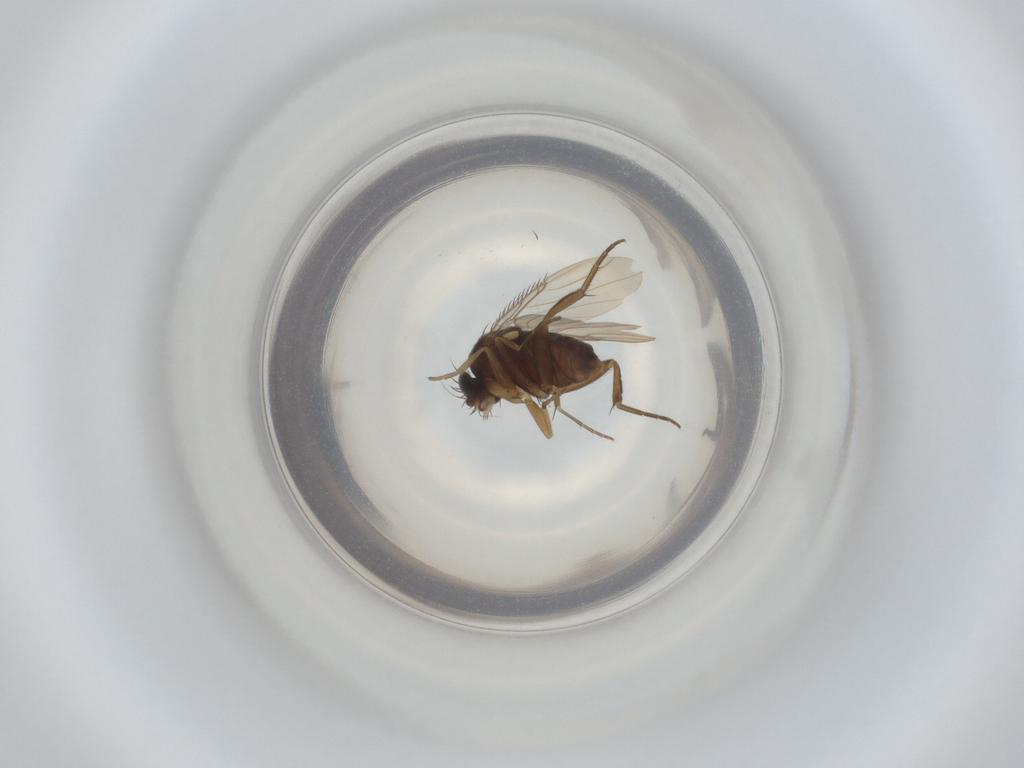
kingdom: Animalia
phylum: Arthropoda
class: Insecta
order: Diptera
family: Phoridae
